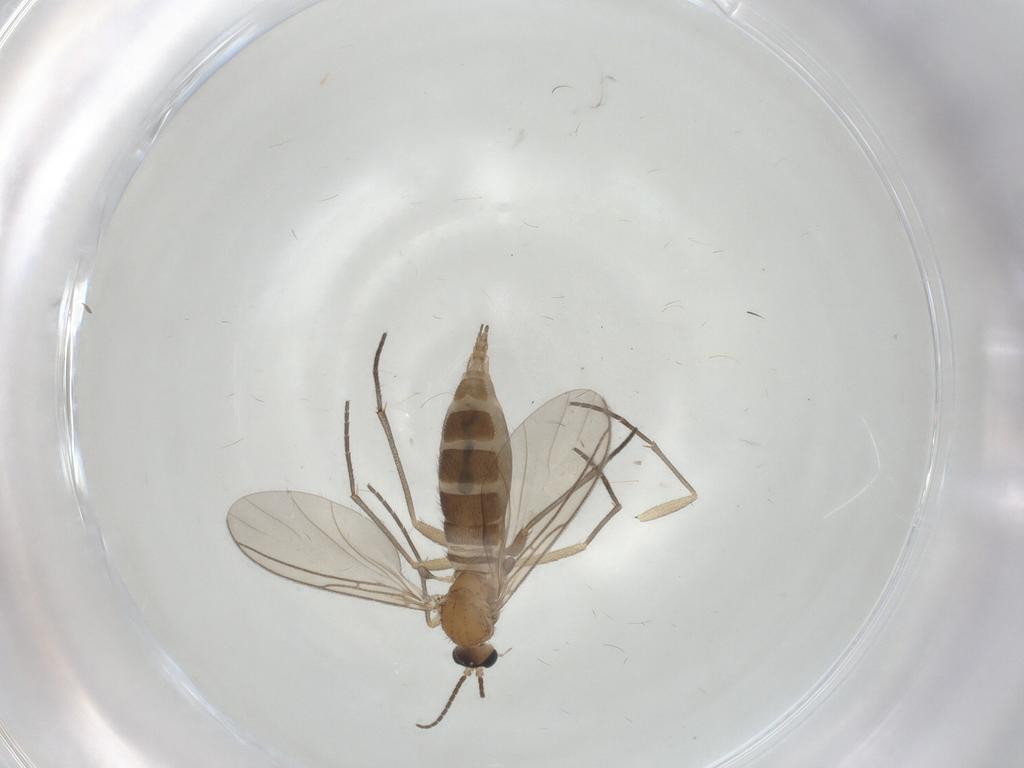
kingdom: Animalia
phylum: Arthropoda
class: Insecta
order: Diptera
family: Sciaridae
